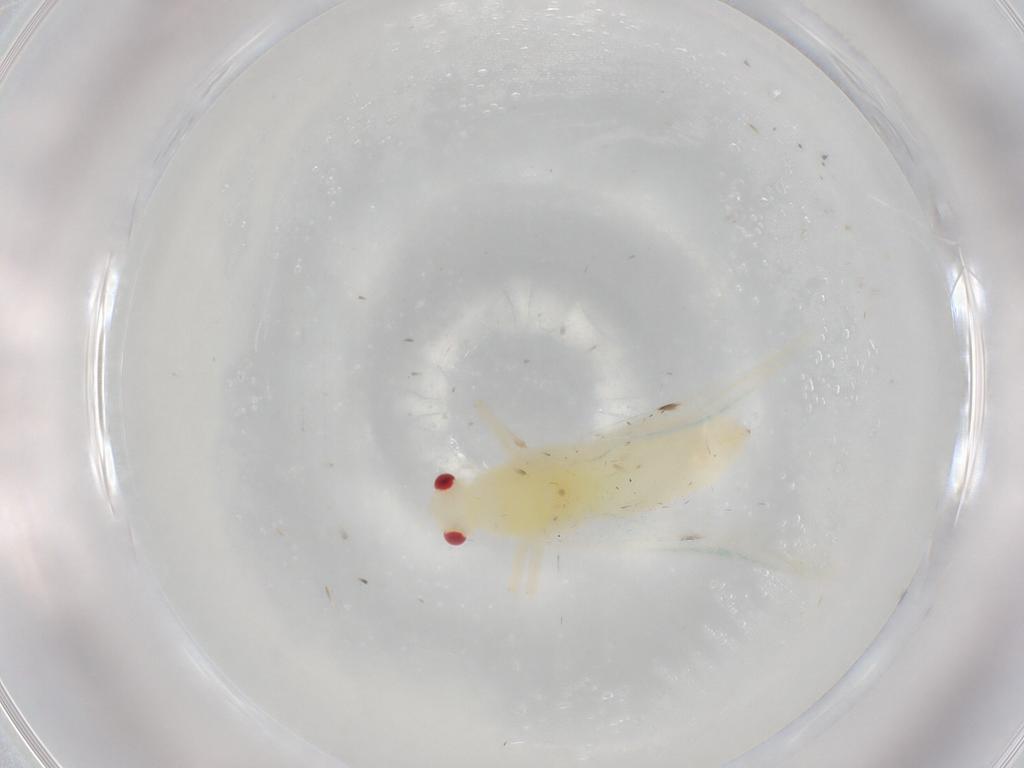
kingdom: Animalia
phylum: Arthropoda
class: Insecta
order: Hemiptera
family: Miridae
